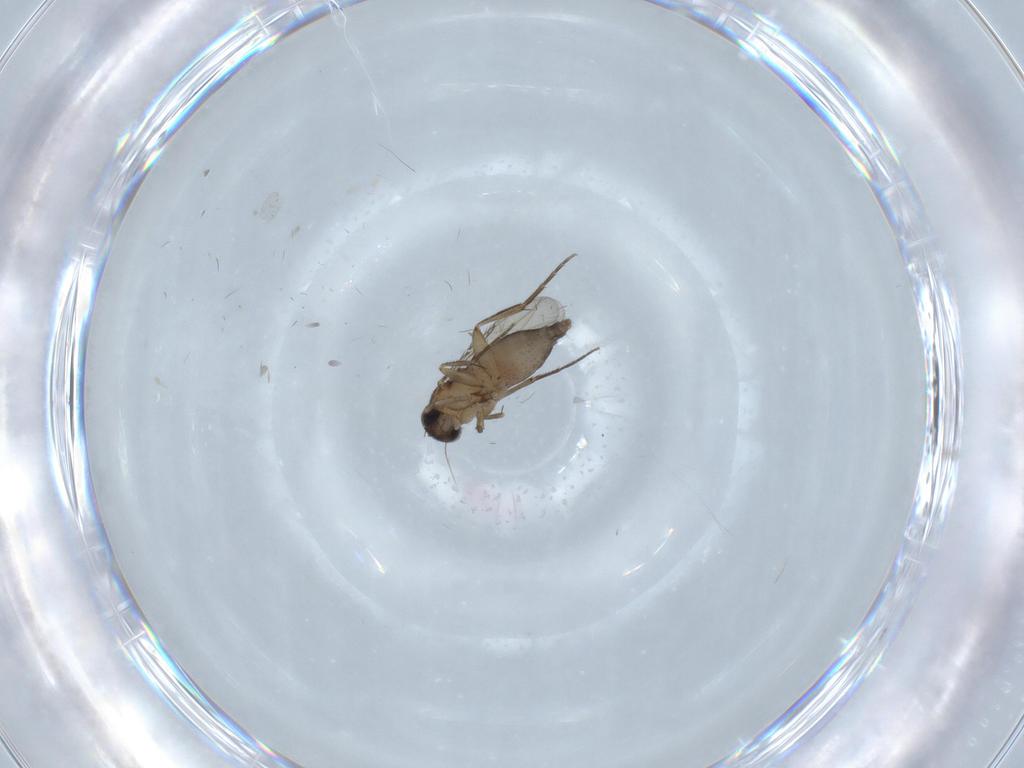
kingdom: Animalia
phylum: Arthropoda
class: Insecta
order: Diptera
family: Phoridae
